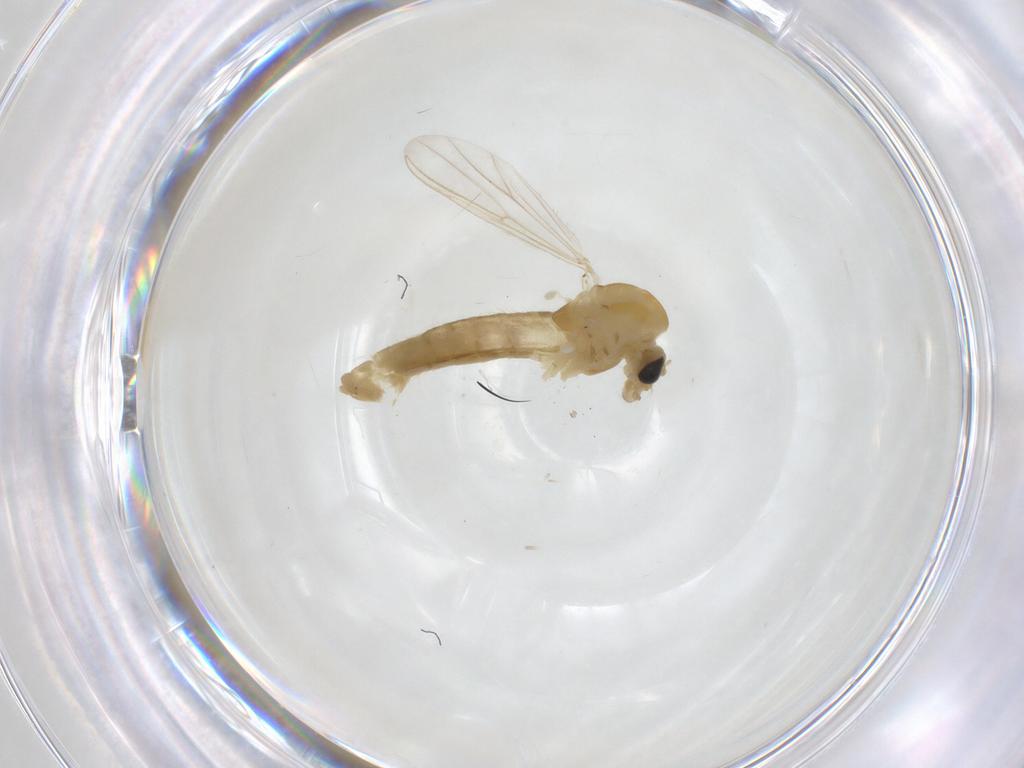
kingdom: Animalia
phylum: Arthropoda
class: Insecta
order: Diptera
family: Chironomidae
